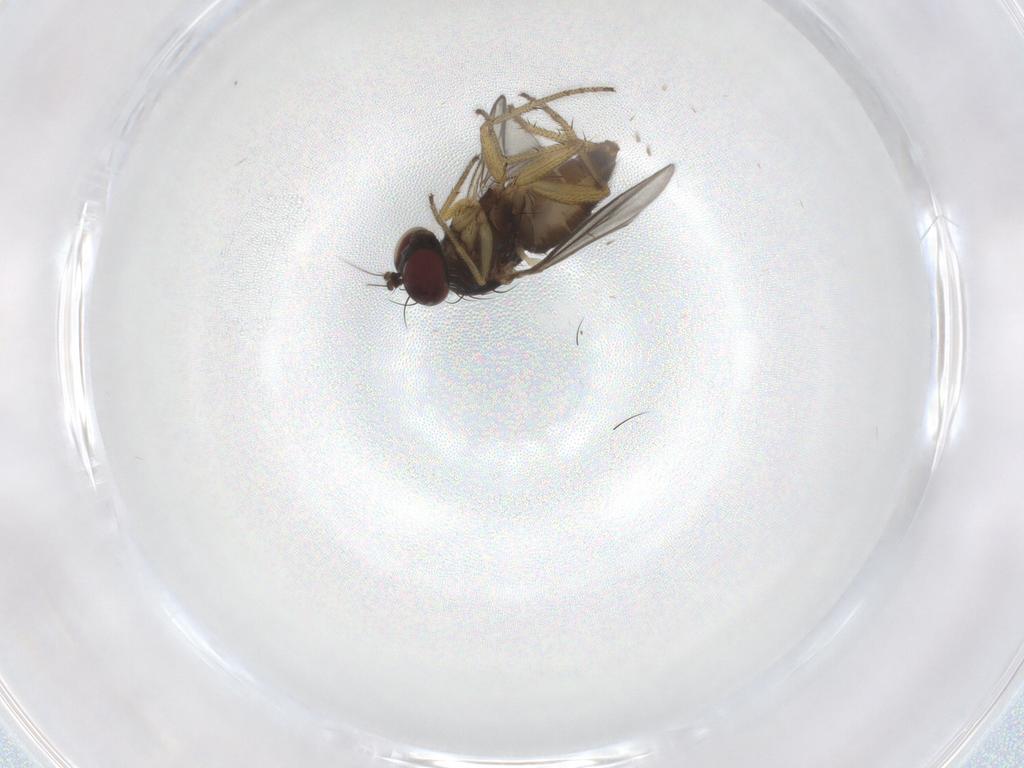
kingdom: Animalia
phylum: Arthropoda
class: Insecta
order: Diptera
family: Dolichopodidae
